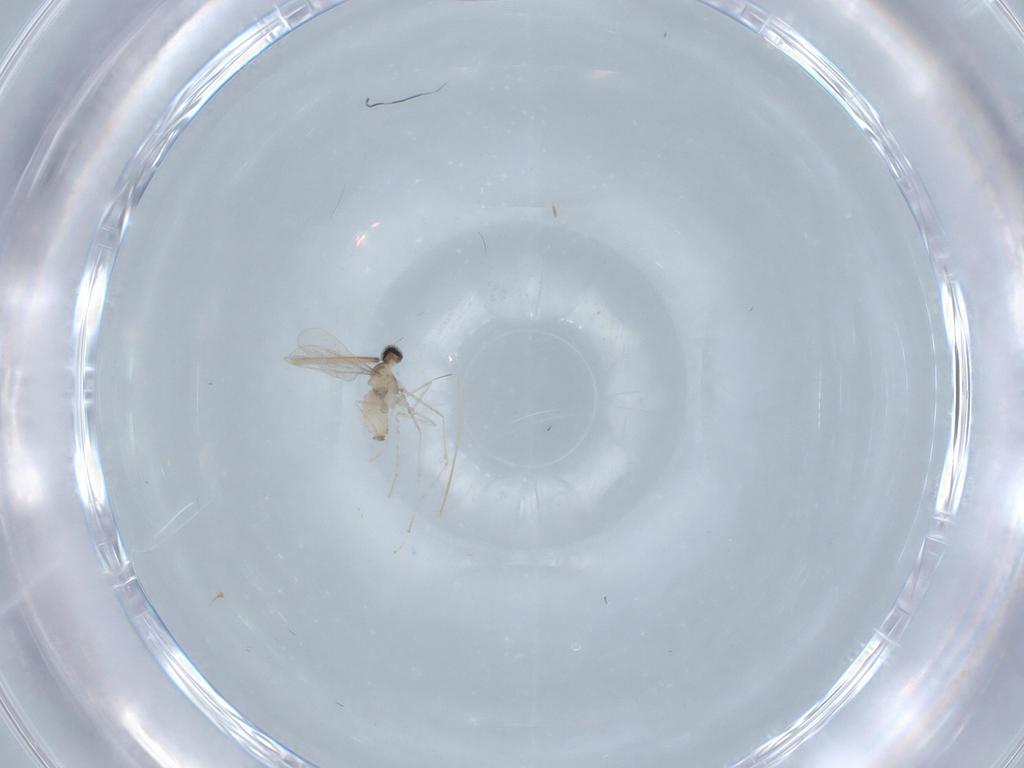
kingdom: Animalia
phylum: Arthropoda
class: Insecta
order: Diptera
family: Cecidomyiidae
